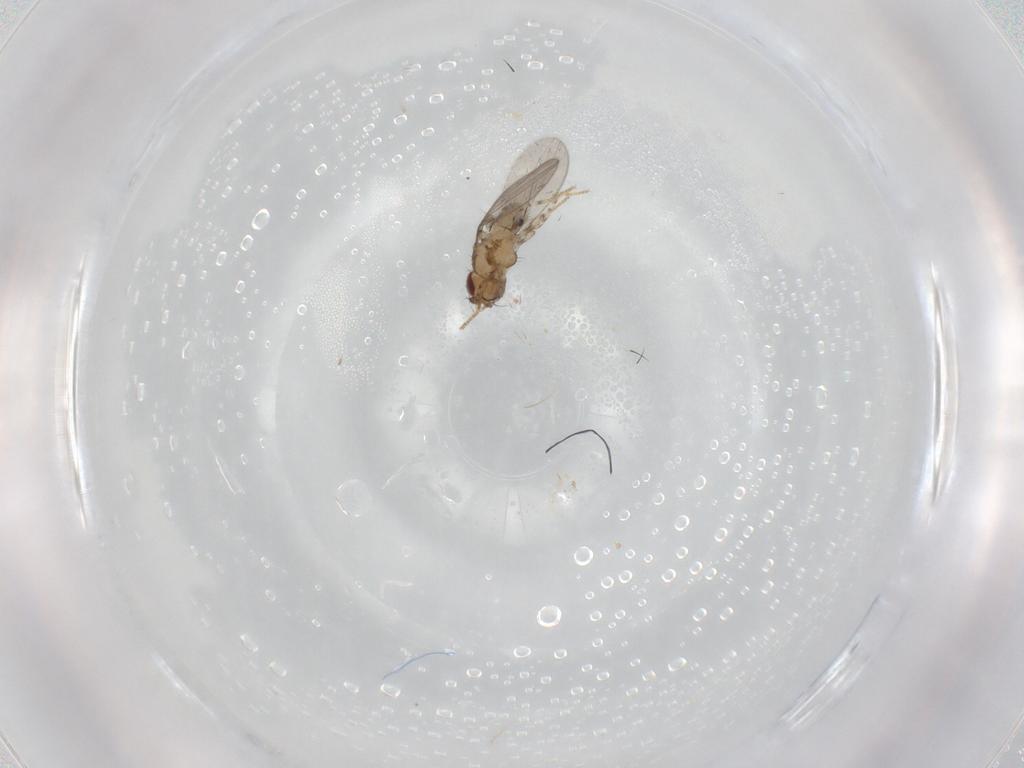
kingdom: Animalia
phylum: Arthropoda
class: Insecta
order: Diptera
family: Asteiidae
